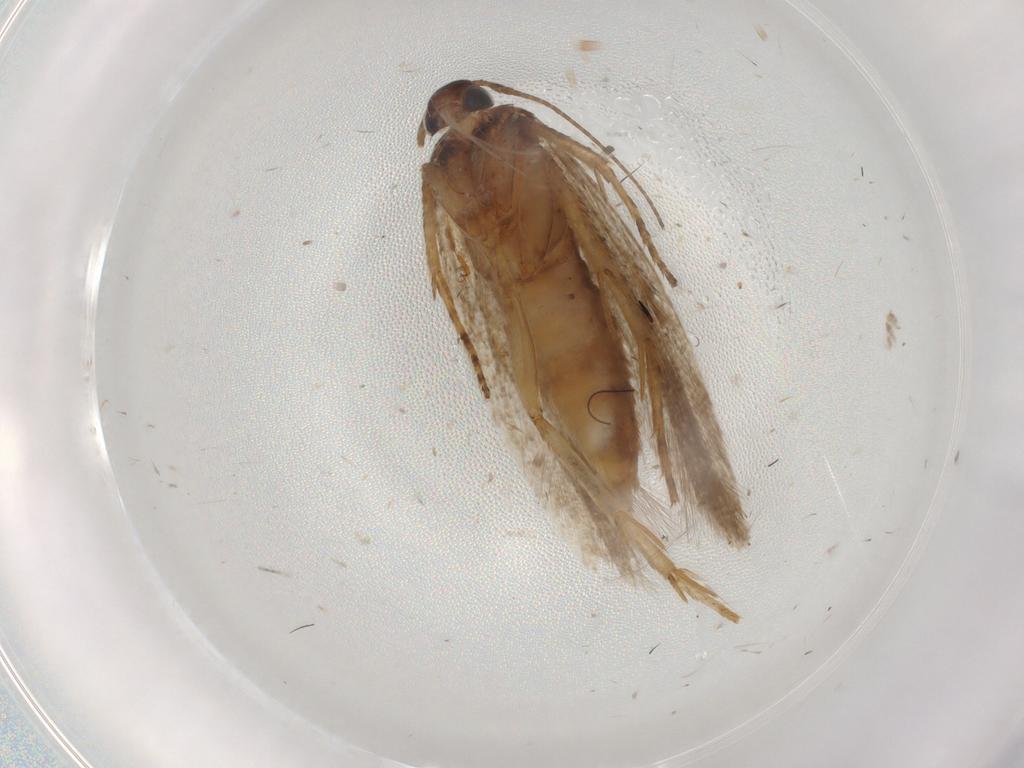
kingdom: Animalia
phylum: Arthropoda
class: Insecta
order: Lepidoptera
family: Gelechiidae
